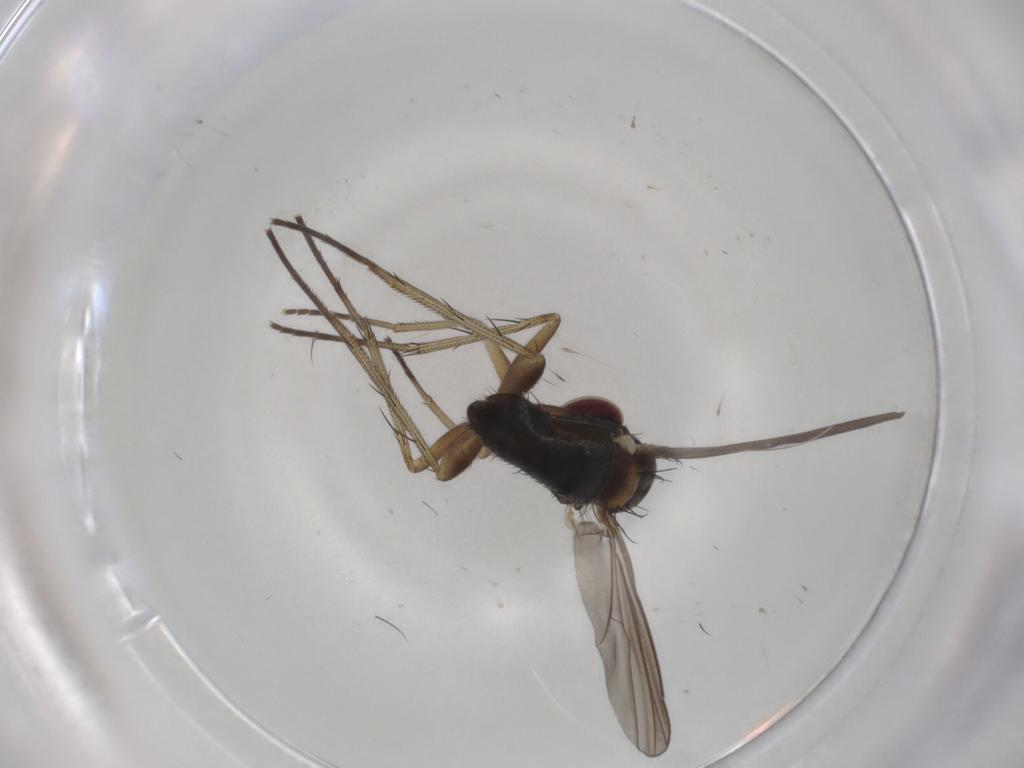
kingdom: Animalia
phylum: Arthropoda
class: Insecta
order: Diptera
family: Dolichopodidae
